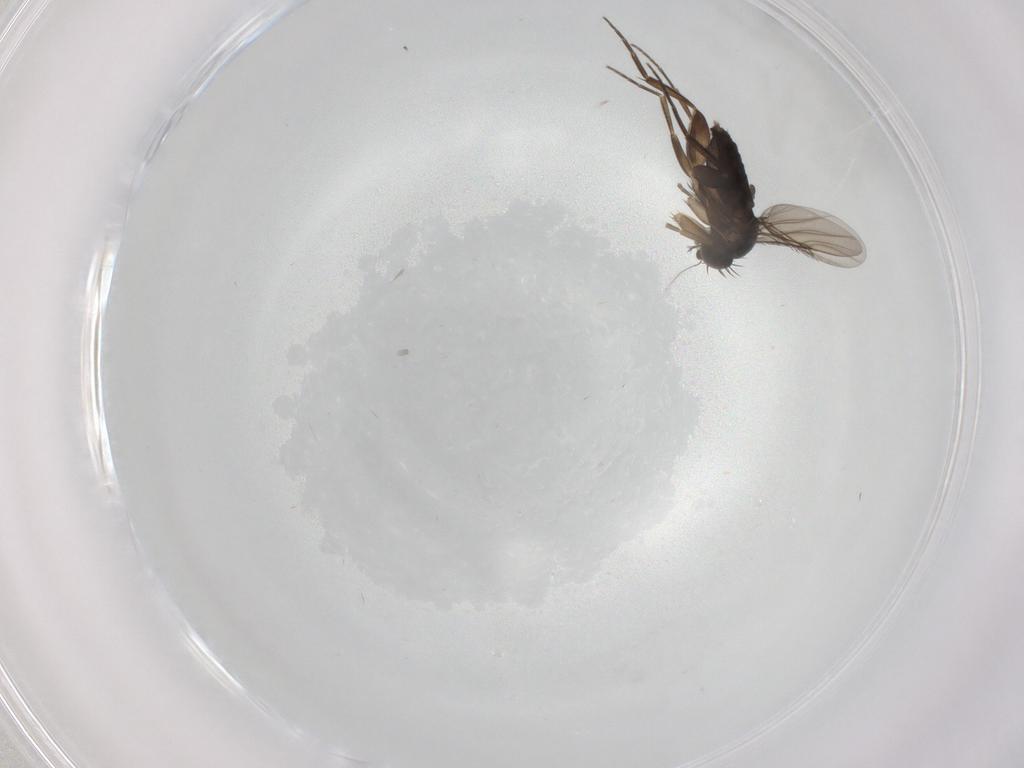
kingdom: Animalia
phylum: Arthropoda
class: Insecta
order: Diptera
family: Phoridae
